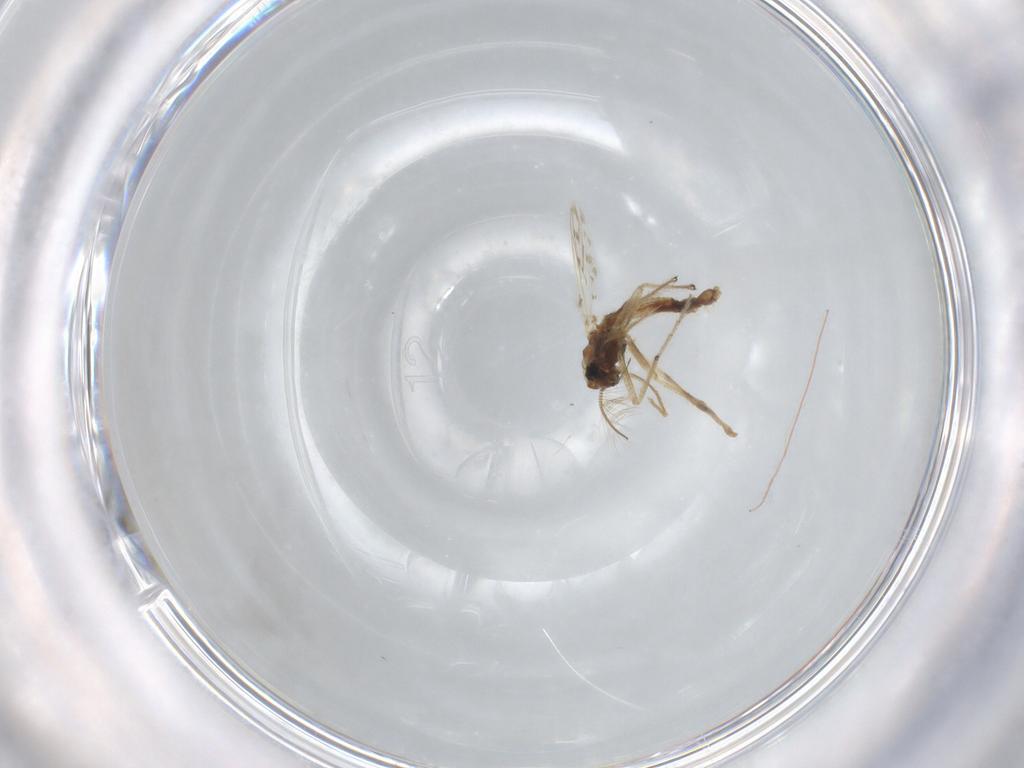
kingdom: Animalia
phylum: Arthropoda
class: Insecta
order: Diptera
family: Chironomidae
